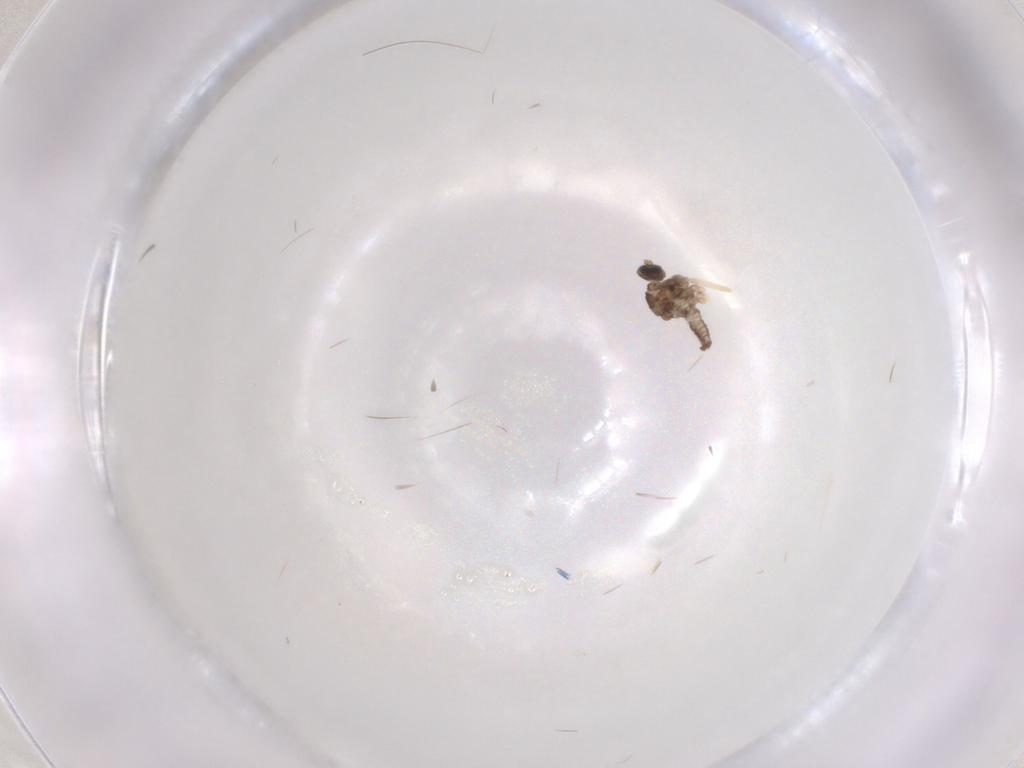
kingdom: Animalia
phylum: Arthropoda
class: Insecta
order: Diptera
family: Cecidomyiidae
